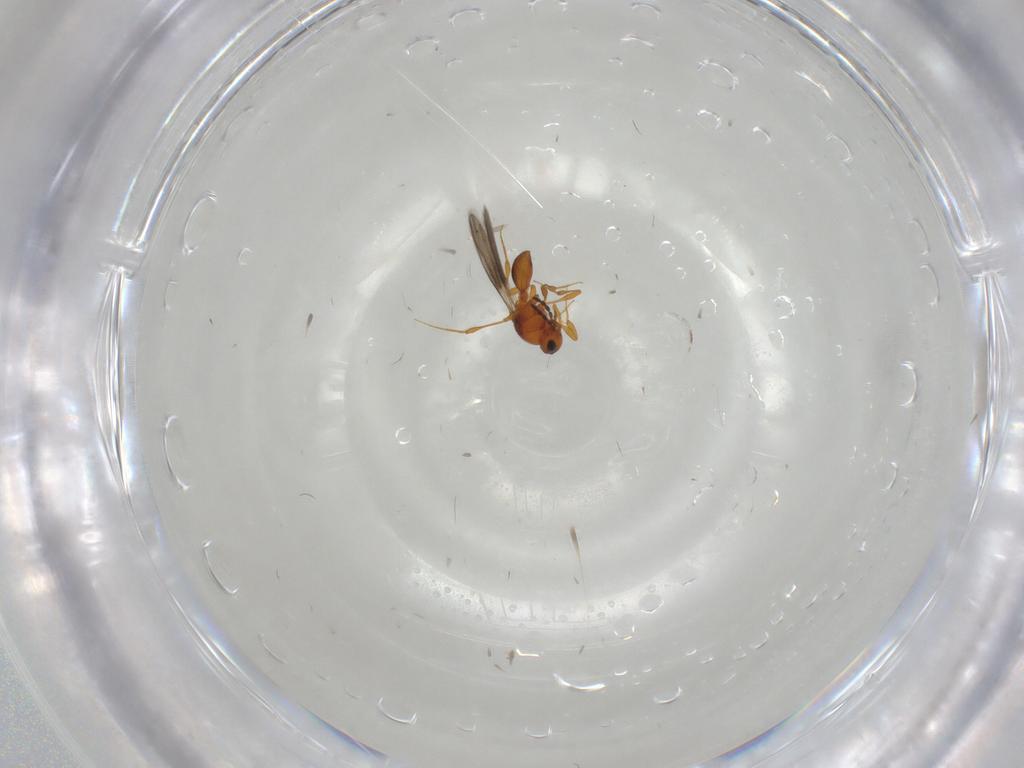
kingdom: Animalia
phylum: Arthropoda
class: Insecta
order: Hymenoptera
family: Platygastridae
